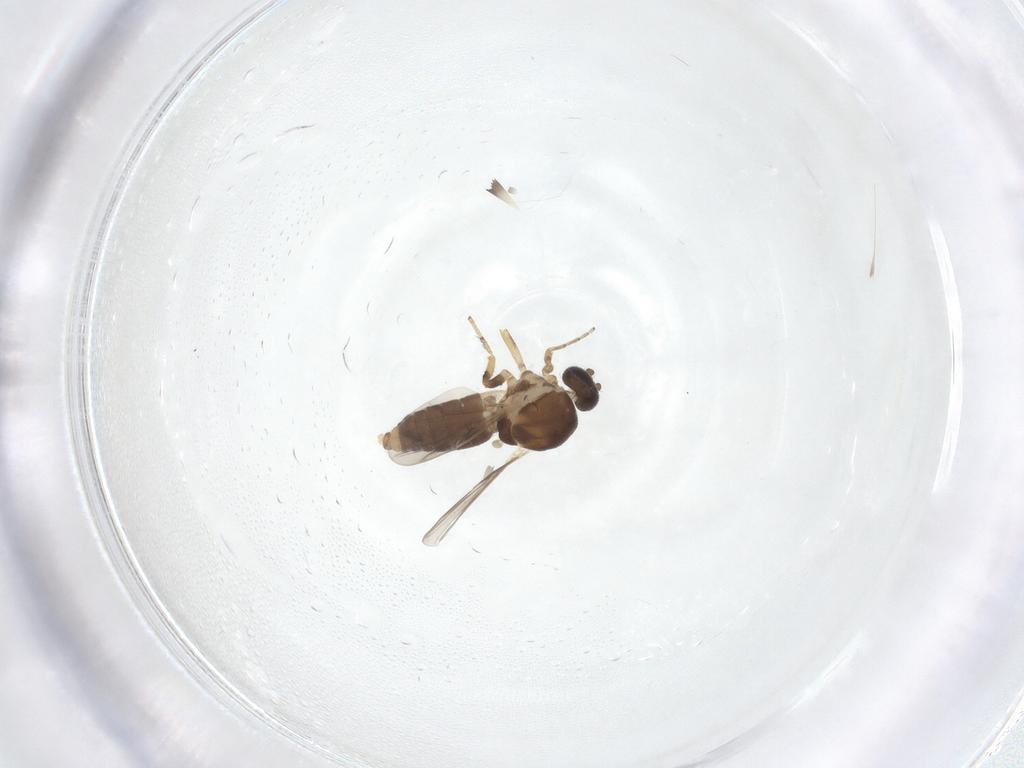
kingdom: Animalia
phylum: Arthropoda
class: Insecta
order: Diptera
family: Ceratopogonidae
